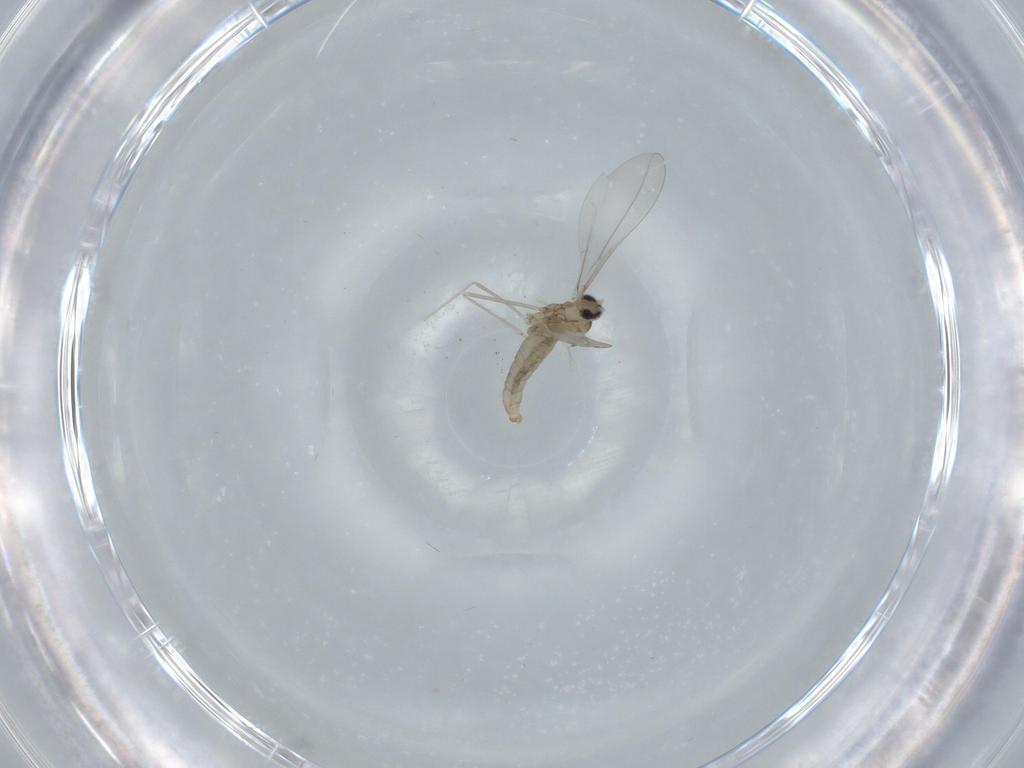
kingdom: Animalia
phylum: Arthropoda
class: Insecta
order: Diptera
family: Cecidomyiidae
